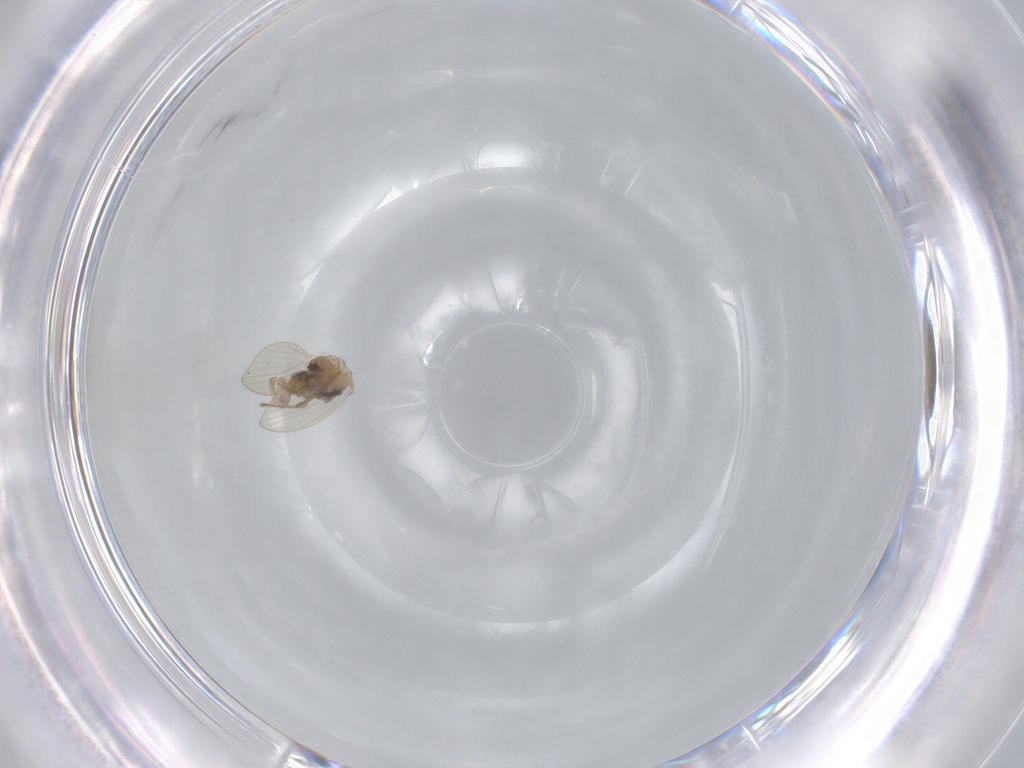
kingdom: Animalia
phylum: Arthropoda
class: Insecta
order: Diptera
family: Psychodidae
